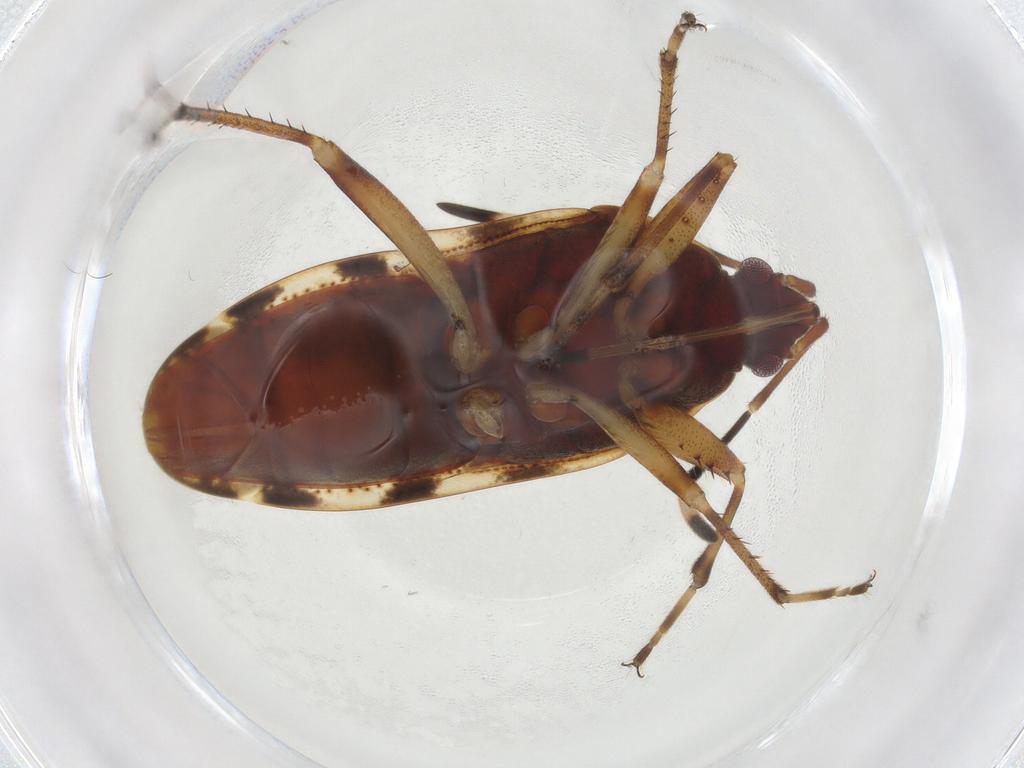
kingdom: Animalia
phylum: Arthropoda
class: Insecta
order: Hemiptera
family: Rhyparochromidae
